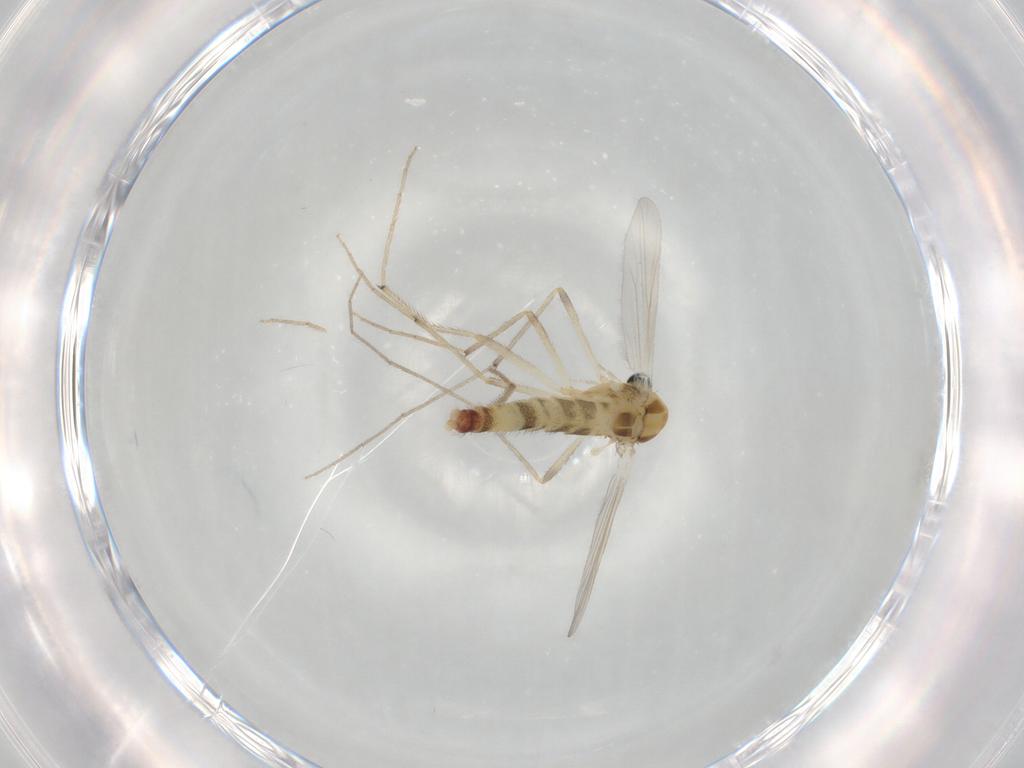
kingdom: Animalia
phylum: Arthropoda
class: Insecta
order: Diptera
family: Chironomidae
